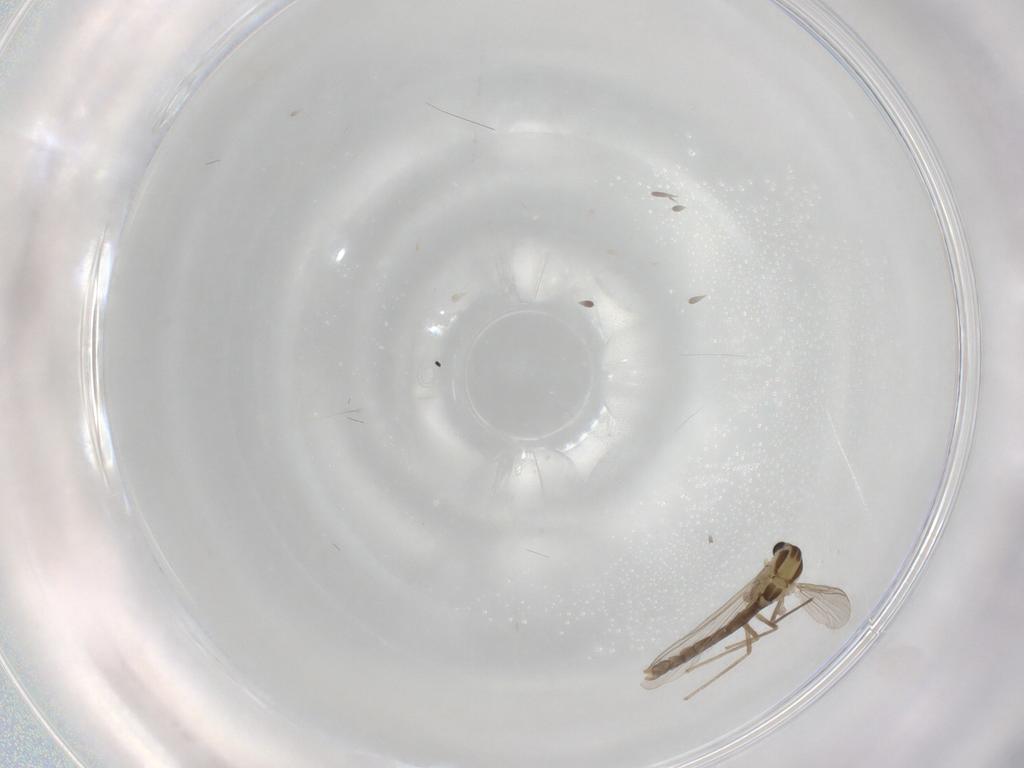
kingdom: Animalia
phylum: Arthropoda
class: Insecta
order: Diptera
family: Chironomidae
